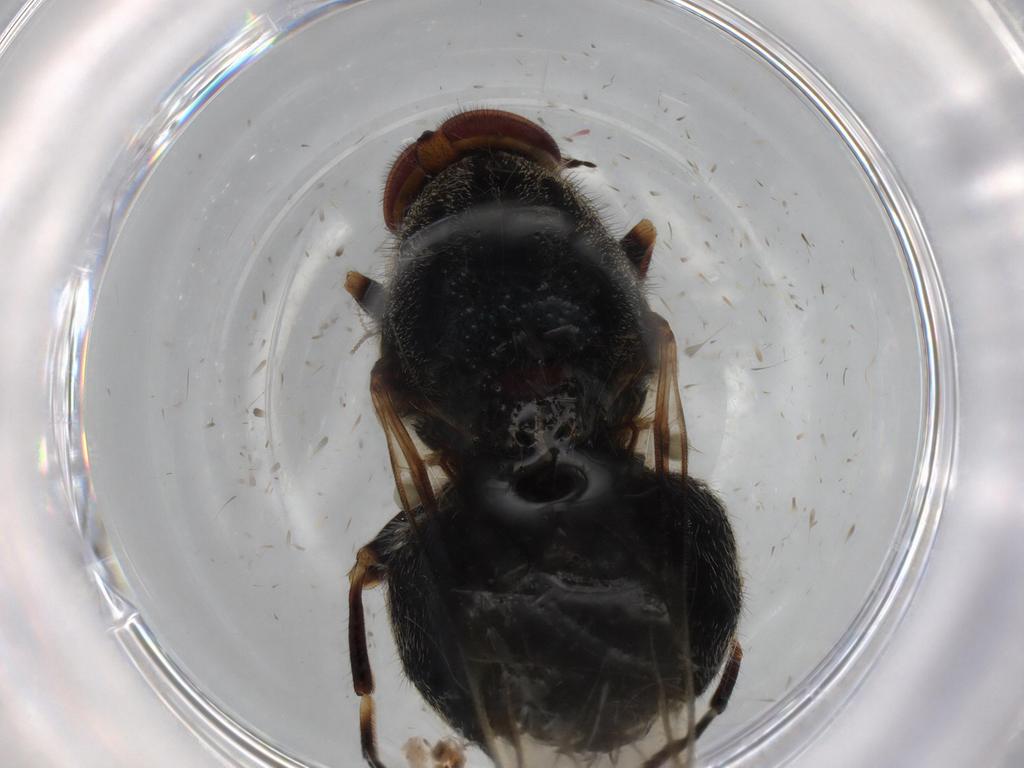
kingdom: Animalia
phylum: Arthropoda
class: Insecta
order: Diptera
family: Stratiomyidae
